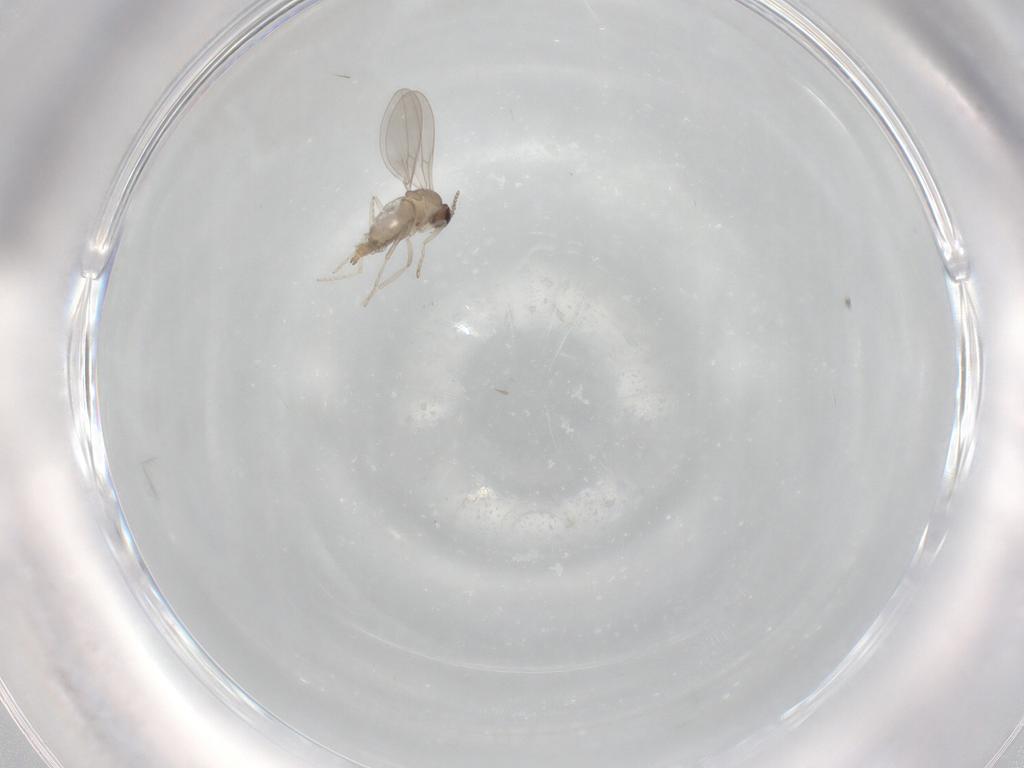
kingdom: Animalia
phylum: Arthropoda
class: Insecta
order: Diptera
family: Cecidomyiidae
